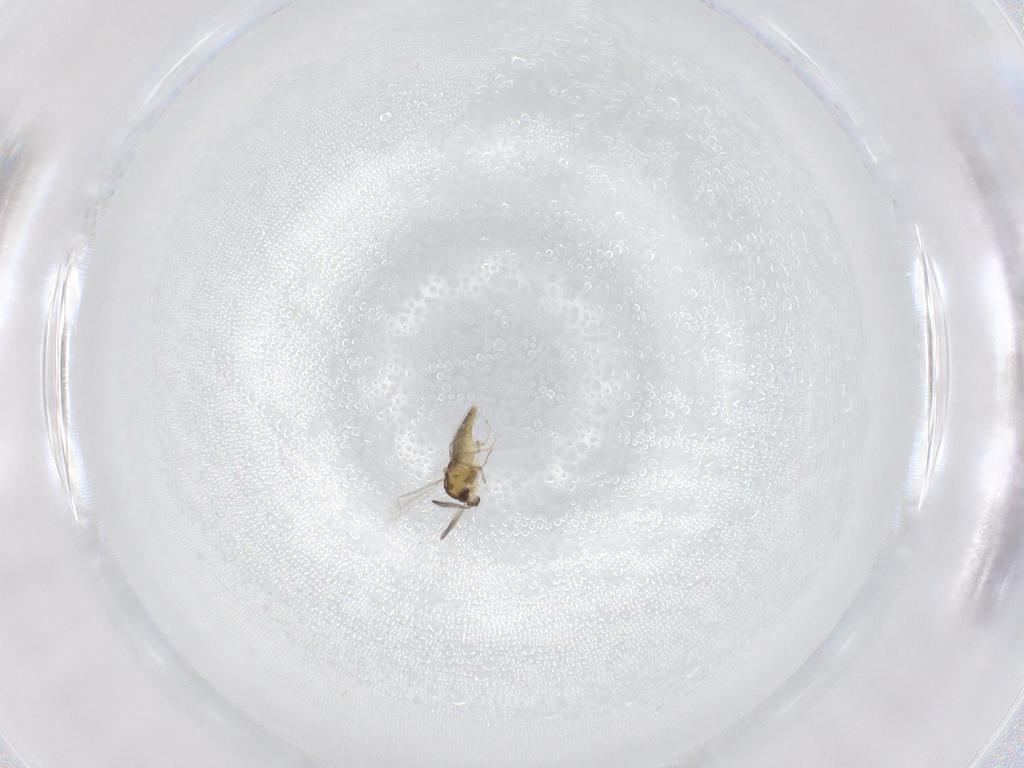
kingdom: Animalia
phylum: Arthropoda
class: Insecta
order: Diptera
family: Chironomidae
